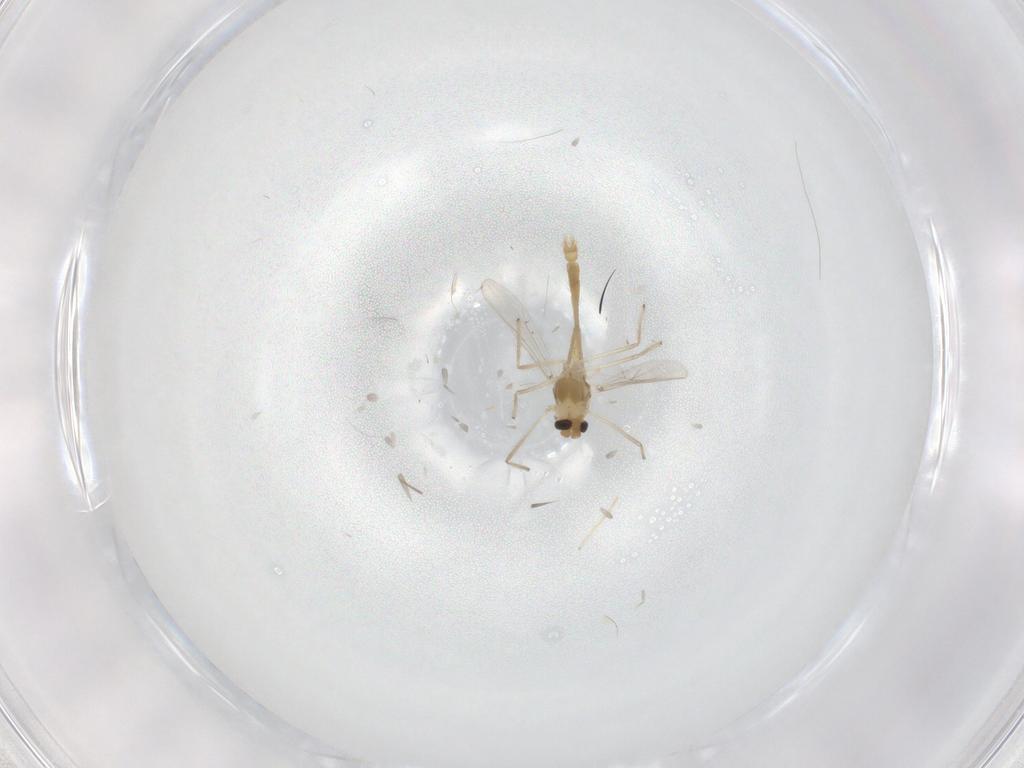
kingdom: Animalia
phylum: Arthropoda
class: Insecta
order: Diptera
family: Chironomidae
